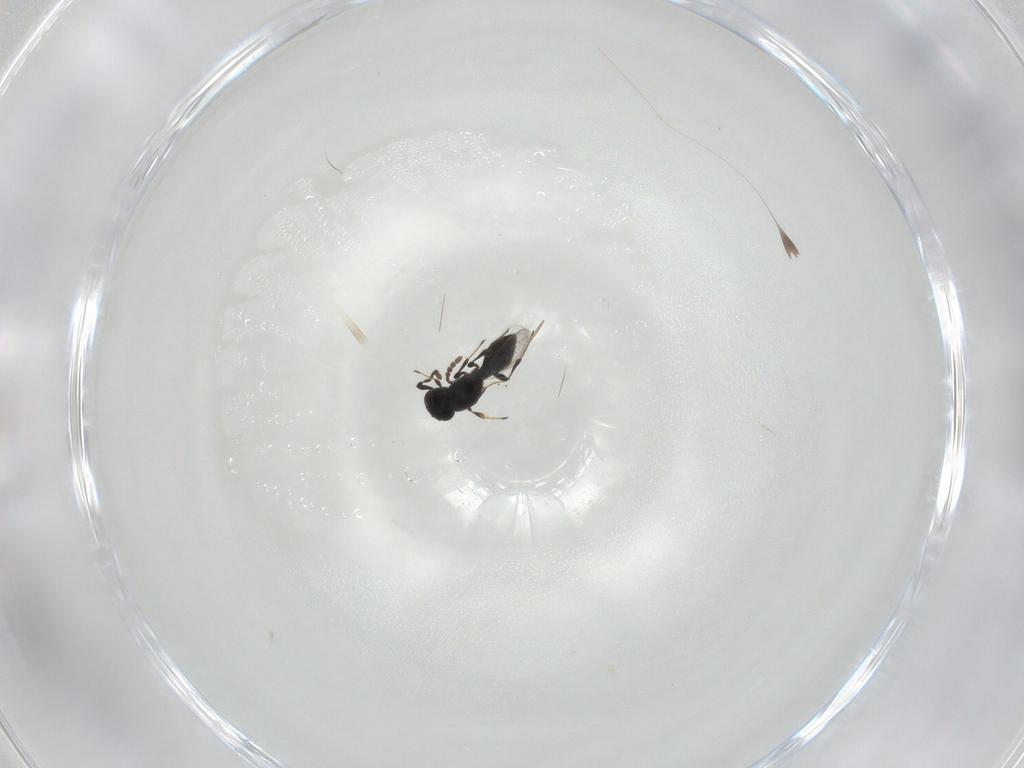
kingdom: Animalia
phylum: Arthropoda
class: Insecta
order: Hymenoptera
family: Platygastridae
